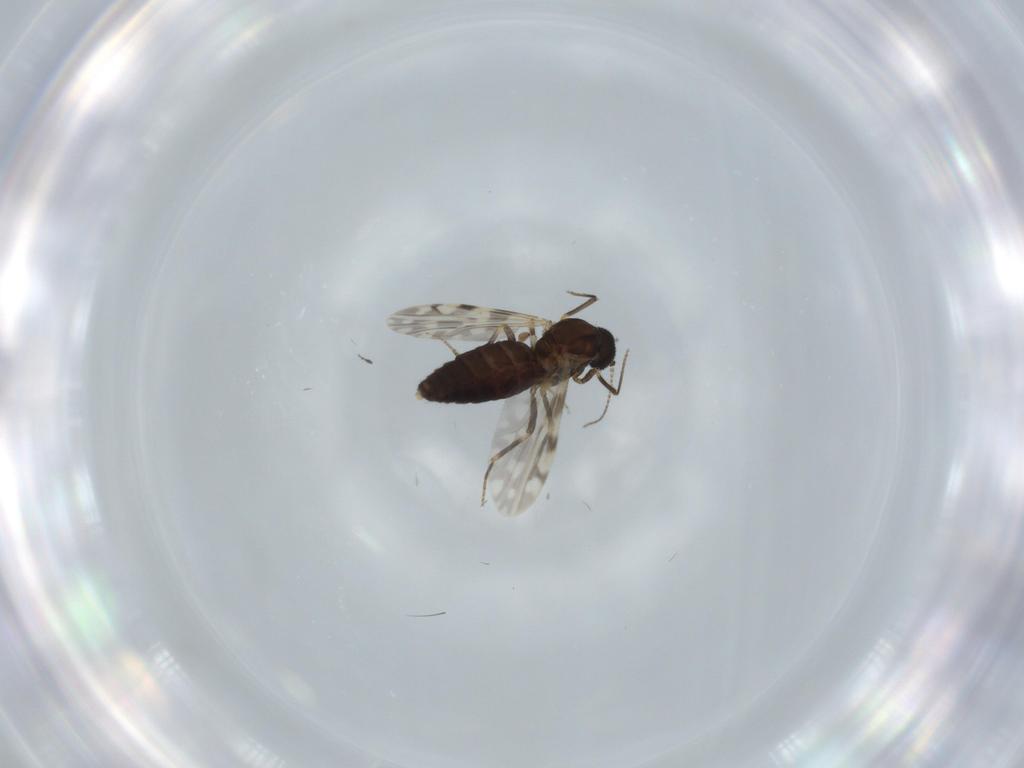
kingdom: Animalia
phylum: Arthropoda
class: Insecta
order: Diptera
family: Ceratopogonidae
